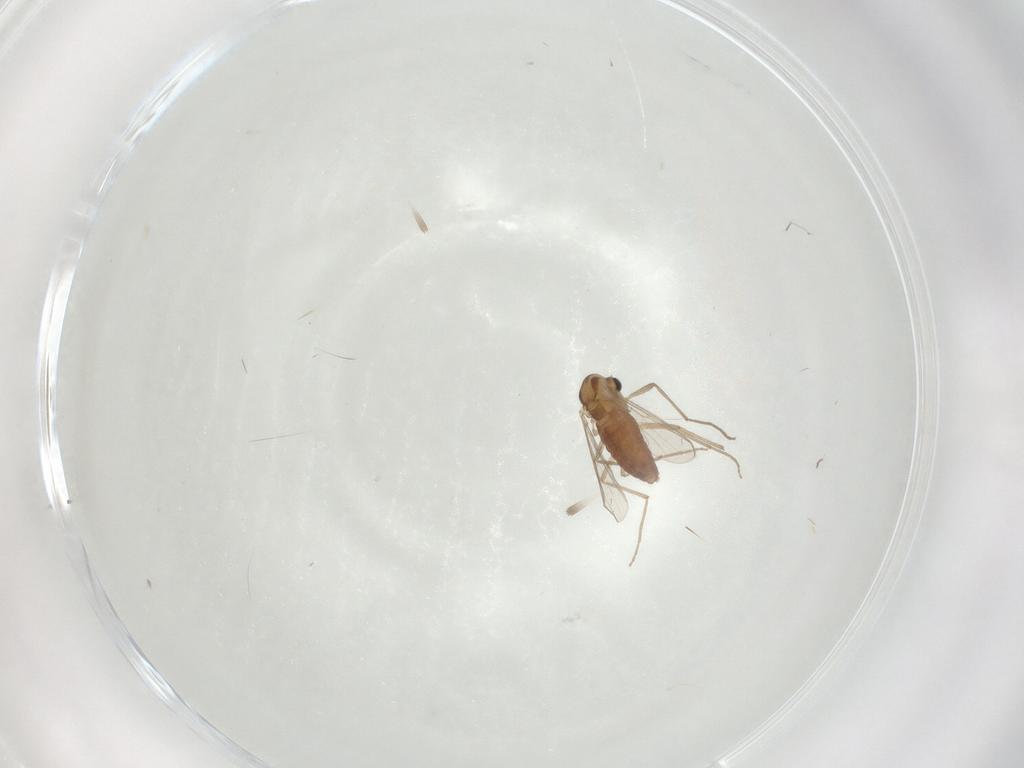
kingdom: Animalia
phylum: Arthropoda
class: Insecta
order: Diptera
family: Chironomidae
